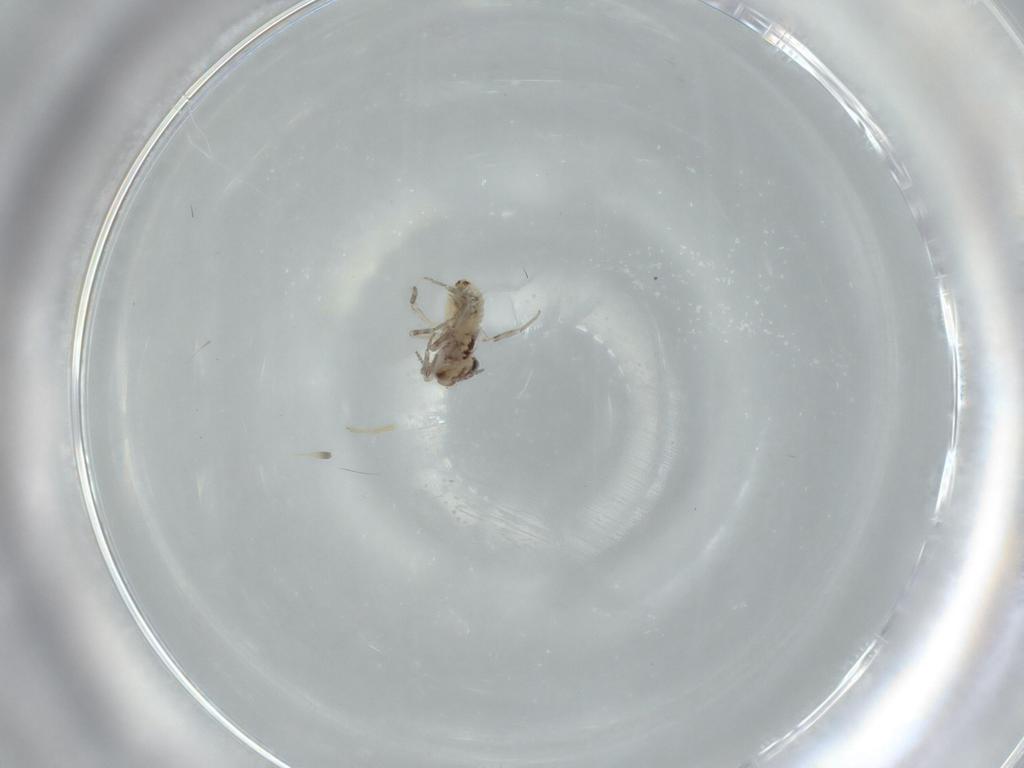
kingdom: Animalia
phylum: Arthropoda
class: Insecta
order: Psocodea
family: Lepidopsocidae
